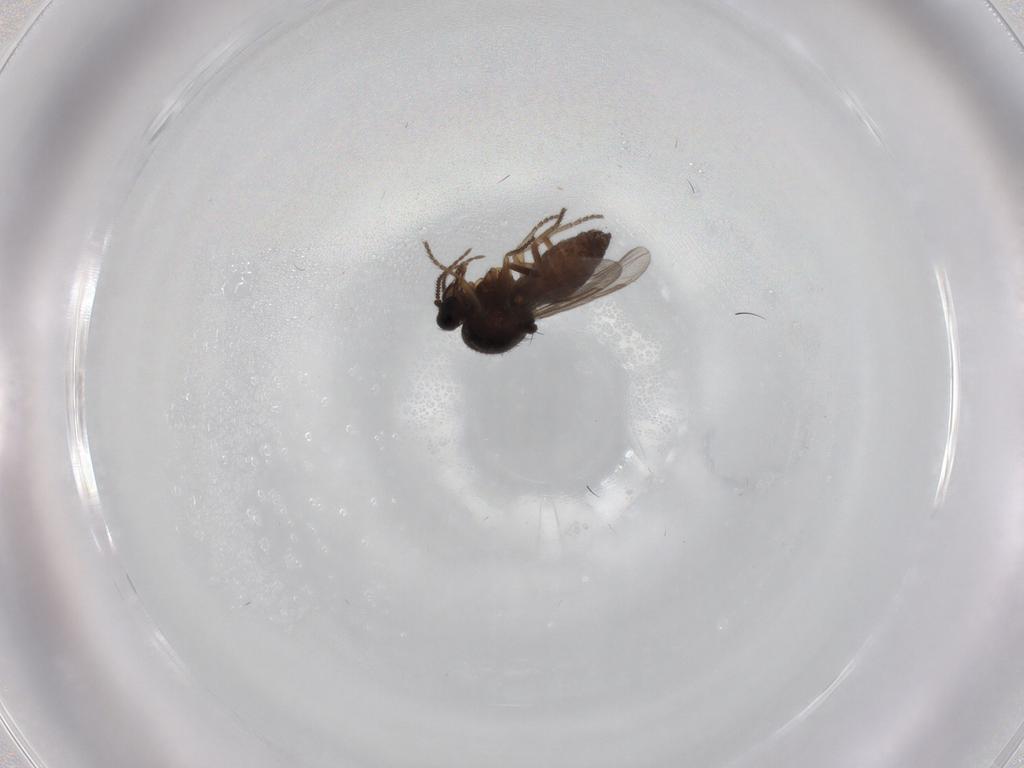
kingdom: Animalia
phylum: Arthropoda
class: Insecta
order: Diptera
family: Ceratopogonidae
